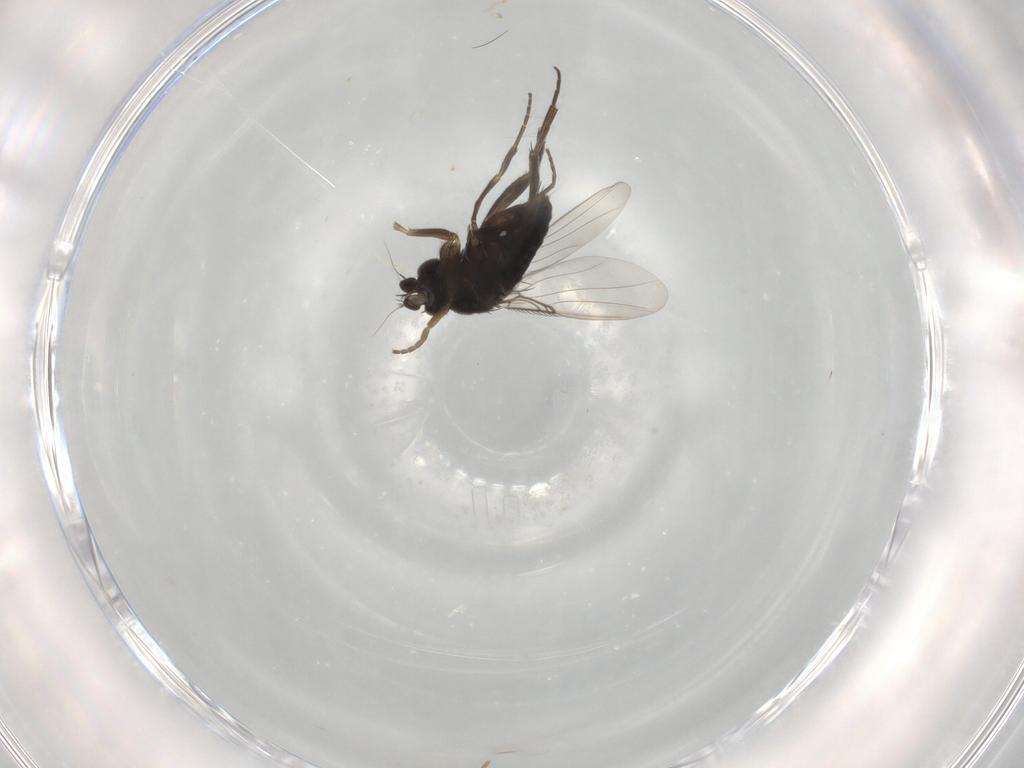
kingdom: Animalia
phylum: Arthropoda
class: Insecta
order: Diptera
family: Phoridae
